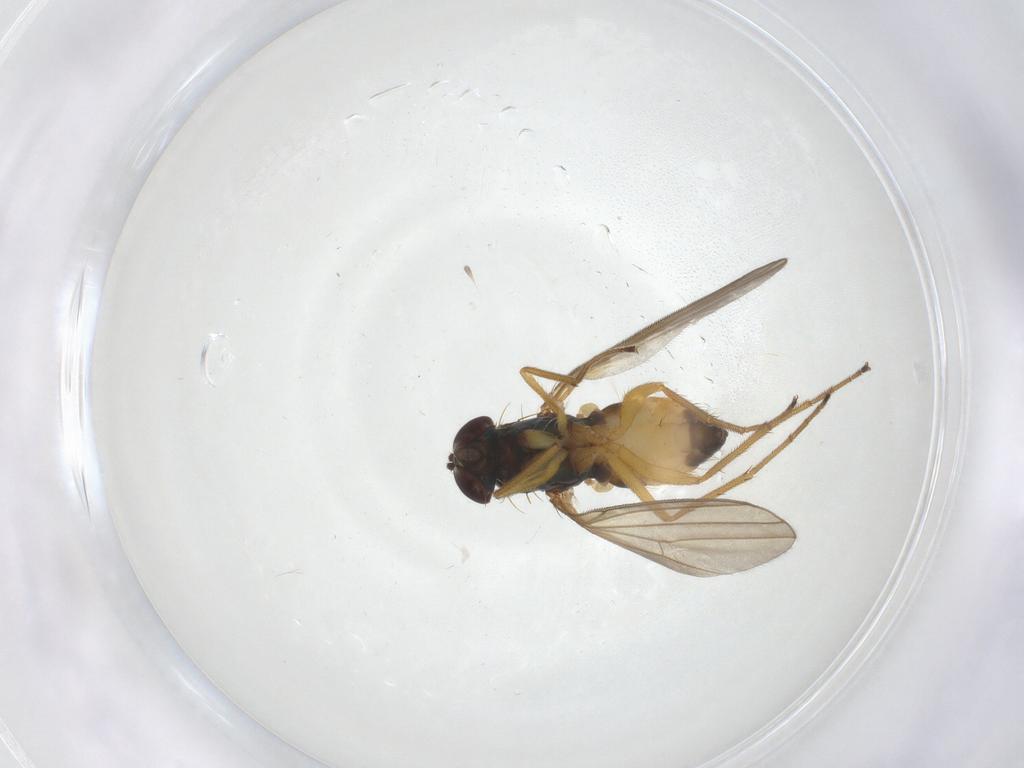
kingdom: Animalia
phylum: Arthropoda
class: Insecta
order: Diptera
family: Dolichopodidae
